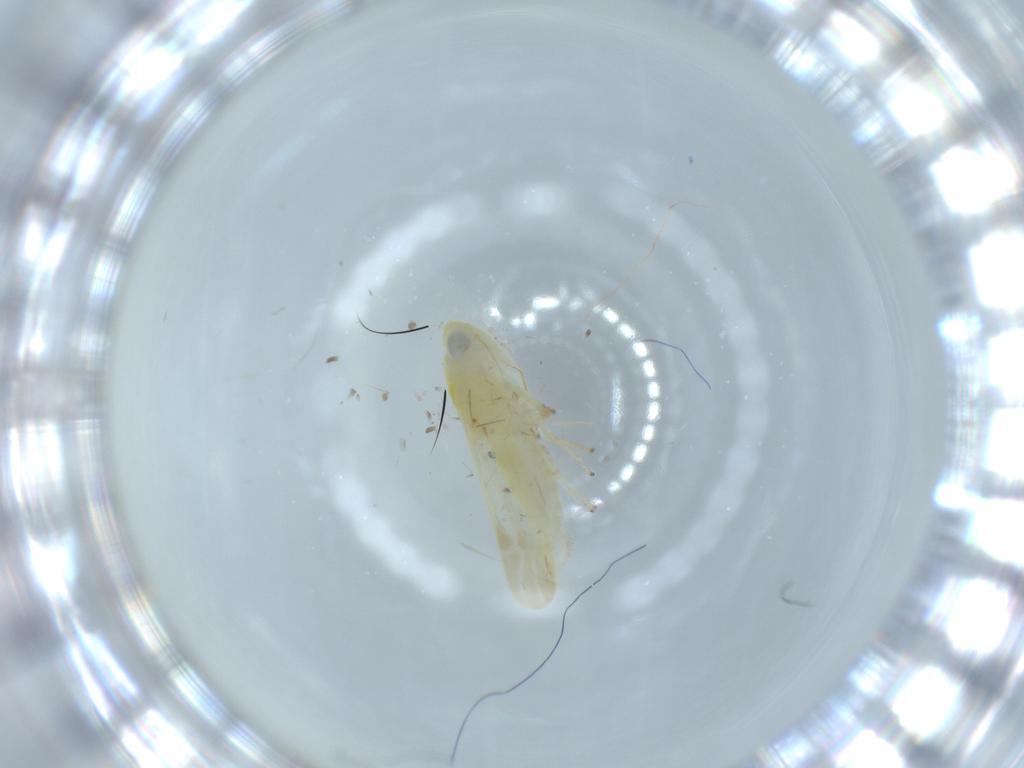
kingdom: Animalia
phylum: Arthropoda
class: Insecta
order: Hemiptera
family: Cicadellidae
